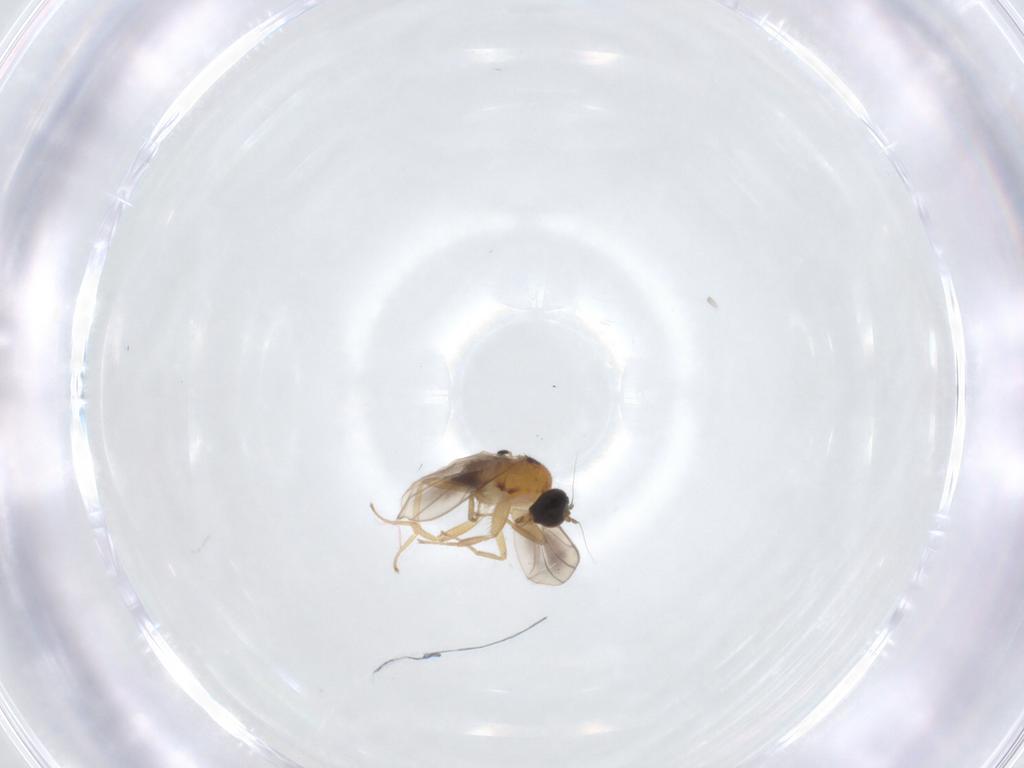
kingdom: Animalia
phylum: Arthropoda
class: Insecta
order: Diptera
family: Hybotidae
